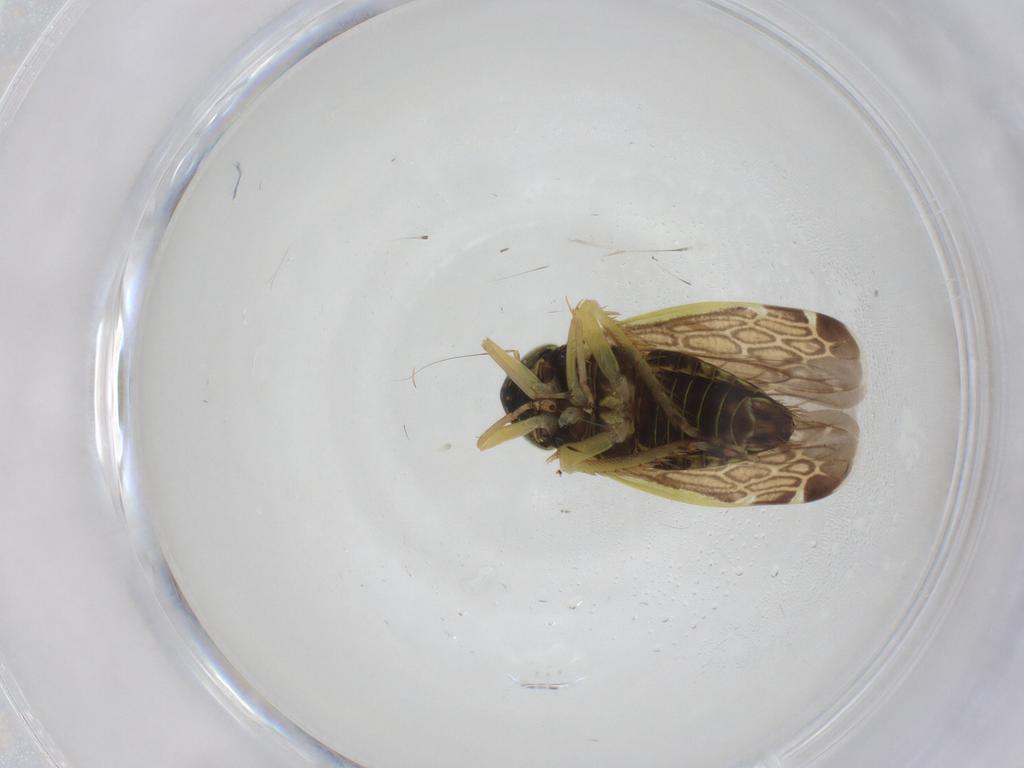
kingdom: Animalia
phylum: Arthropoda
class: Insecta
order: Hemiptera
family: Cicadellidae
